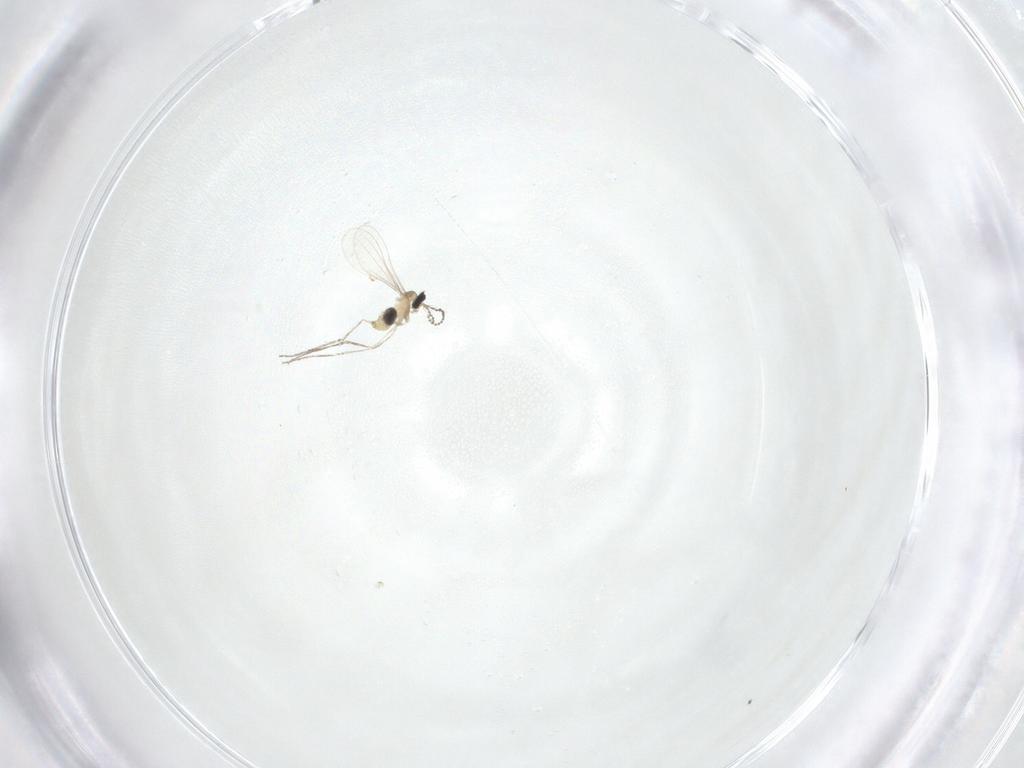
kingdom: Animalia
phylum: Arthropoda
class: Insecta
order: Diptera
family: Cecidomyiidae
